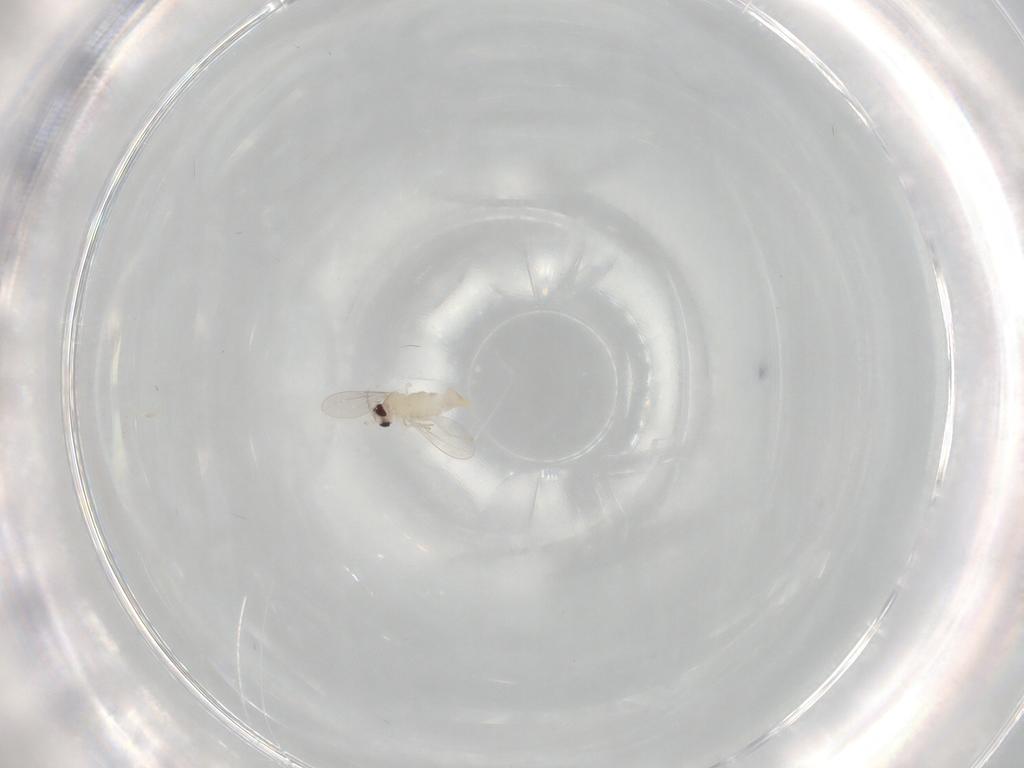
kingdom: Animalia
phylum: Arthropoda
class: Insecta
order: Diptera
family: Cecidomyiidae
